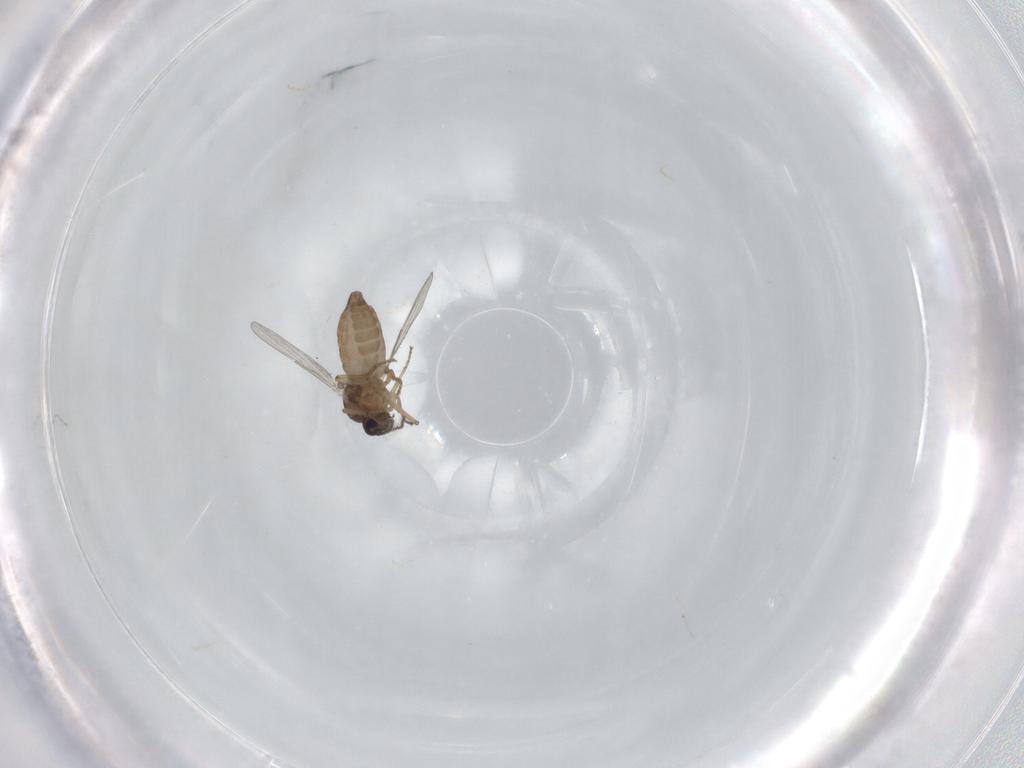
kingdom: Animalia
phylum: Arthropoda
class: Insecta
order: Diptera
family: Ceratopogonidae
